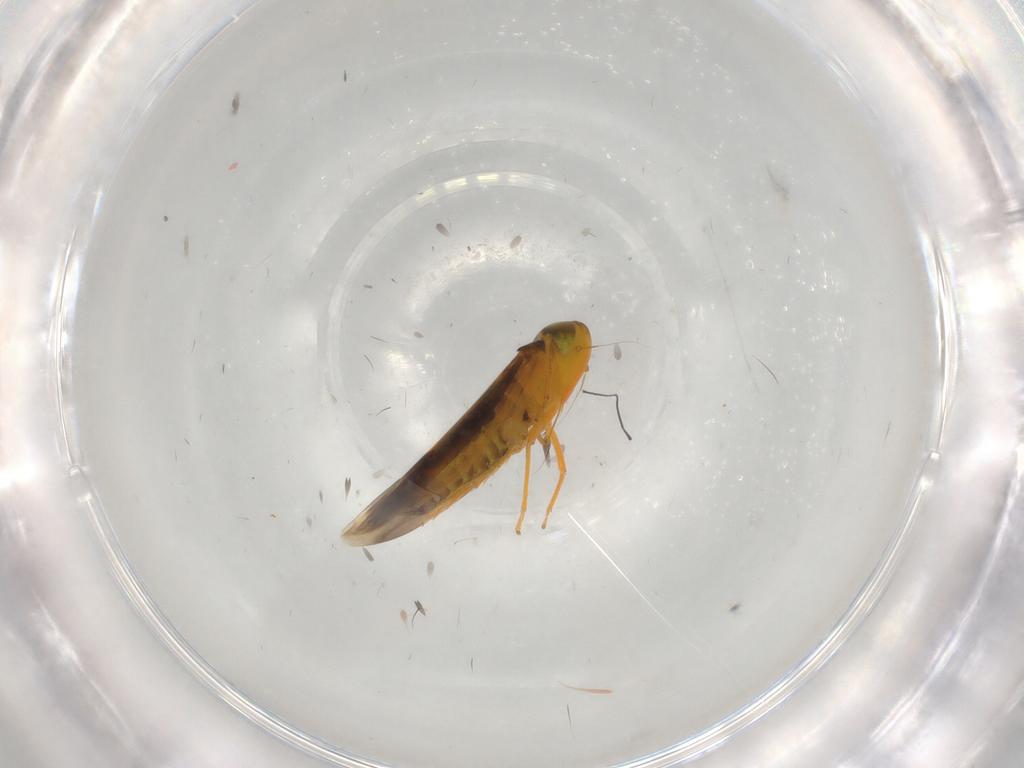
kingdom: Animalia
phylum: Arthropoda
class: Insecta
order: Hemiptera
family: Cicadellidae
